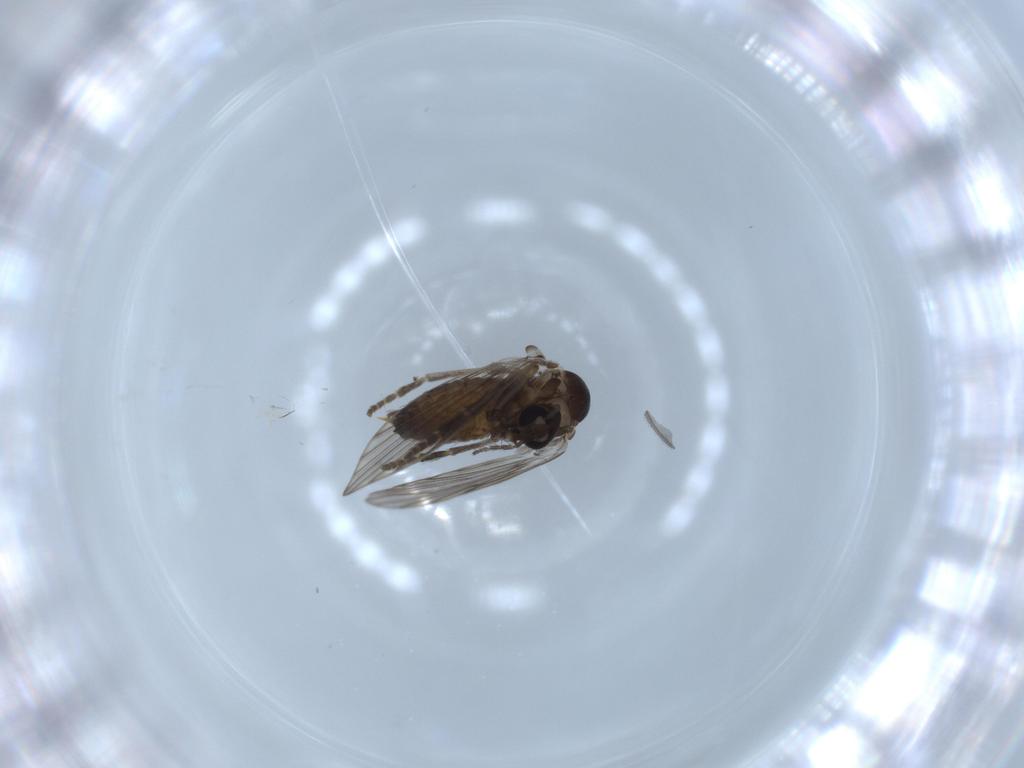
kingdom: Animalia
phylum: Arthropoda
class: Insecta
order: Diptera
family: Psychodidae
